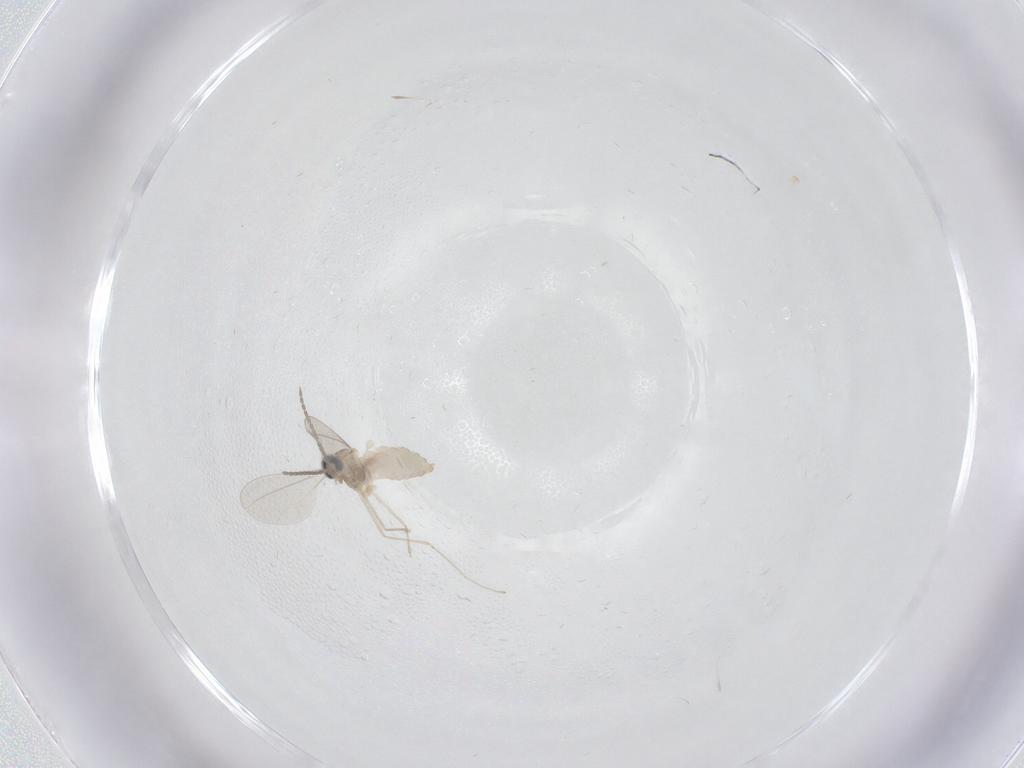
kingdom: Animalia
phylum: Arthropoda
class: Insecta
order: Diptera
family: Cecidomyiidae
